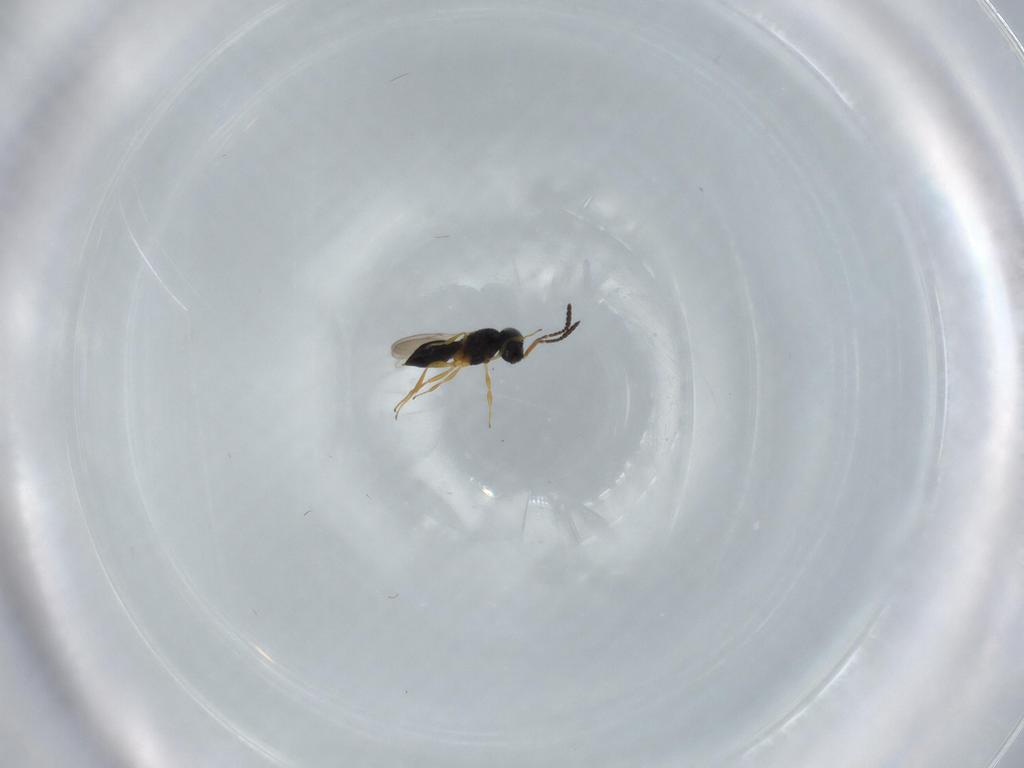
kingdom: Animalia
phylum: Arthropoda
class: Insecta
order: Hymenoptera
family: Scelionidae
